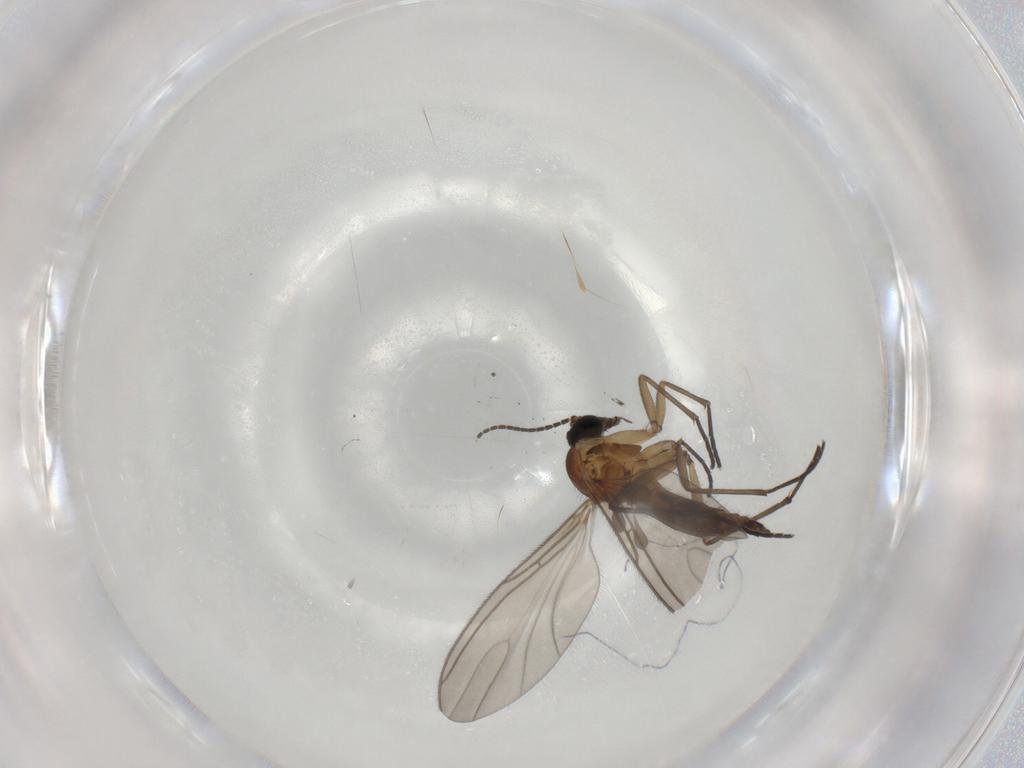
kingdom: Animalia
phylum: Arthropoda
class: Insecta
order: Diptera
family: Sciaridae
